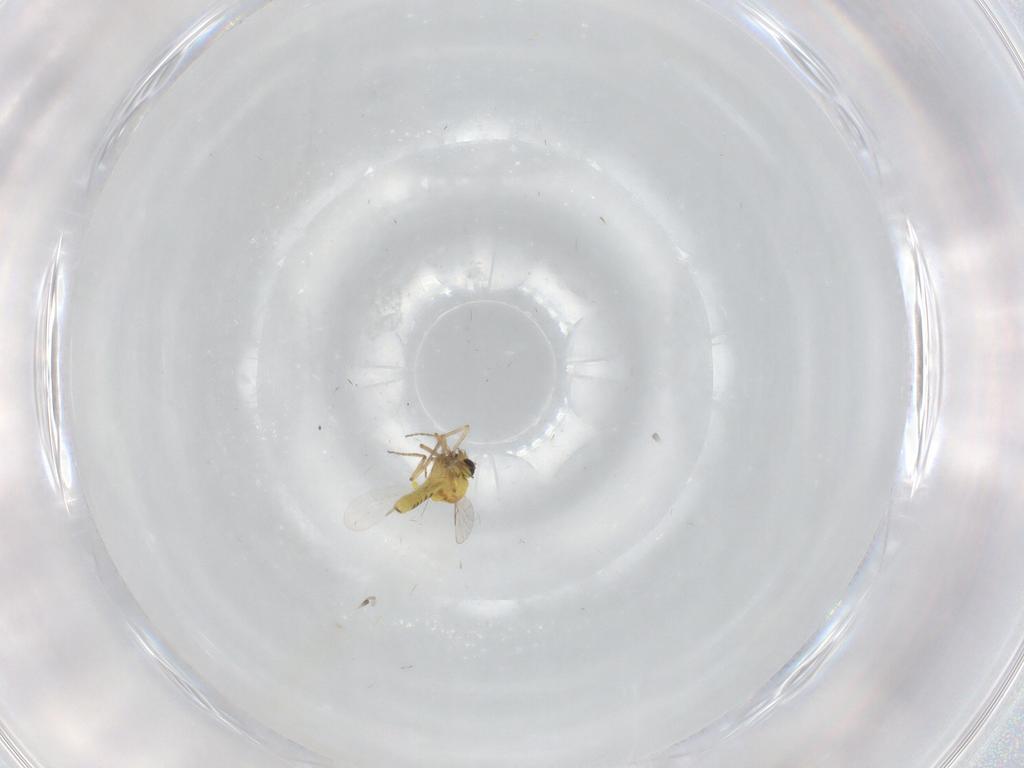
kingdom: Animalia
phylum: Arthropoda
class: Insecta
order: Diptera
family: Ceratopogonidae
